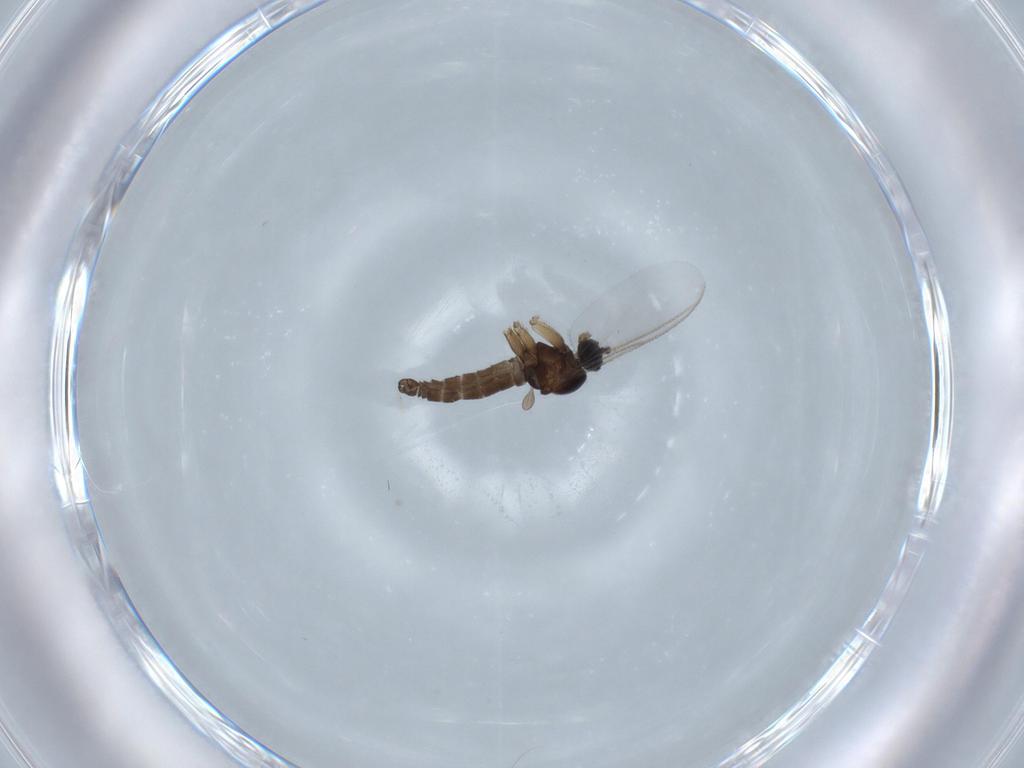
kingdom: Animalia
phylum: Arthropoda
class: Insecta
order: Diptera
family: Sciaridae
